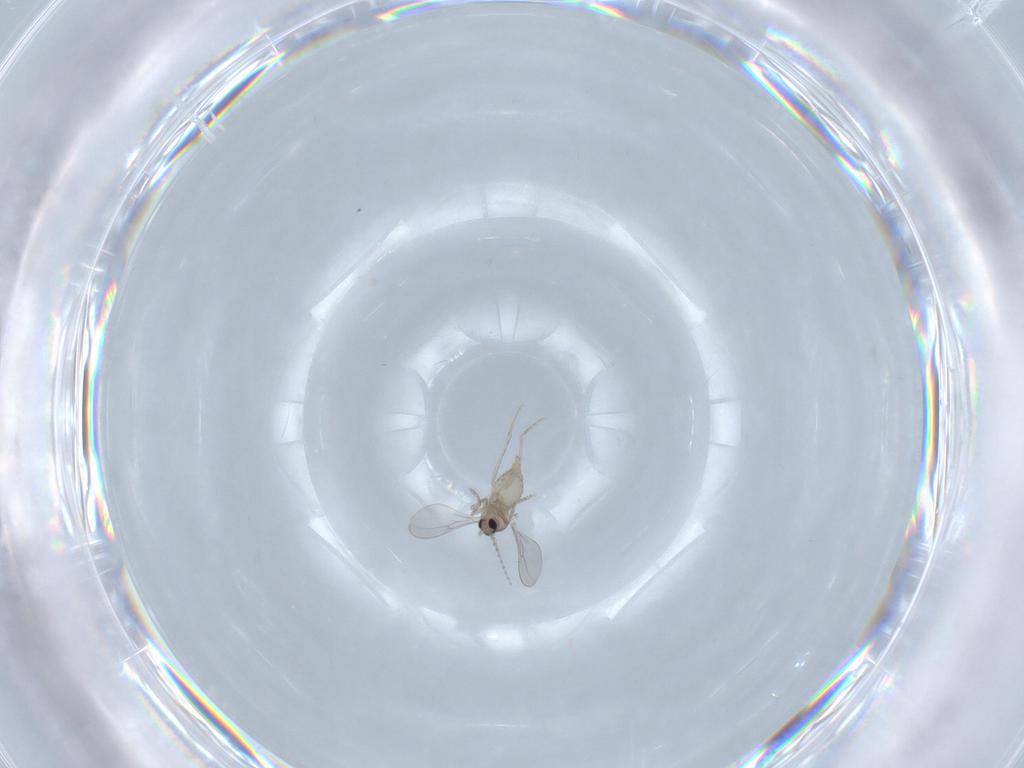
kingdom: Animalia
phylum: Arthropoda
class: Insecta
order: Diptera
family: Cecidomyiidae
